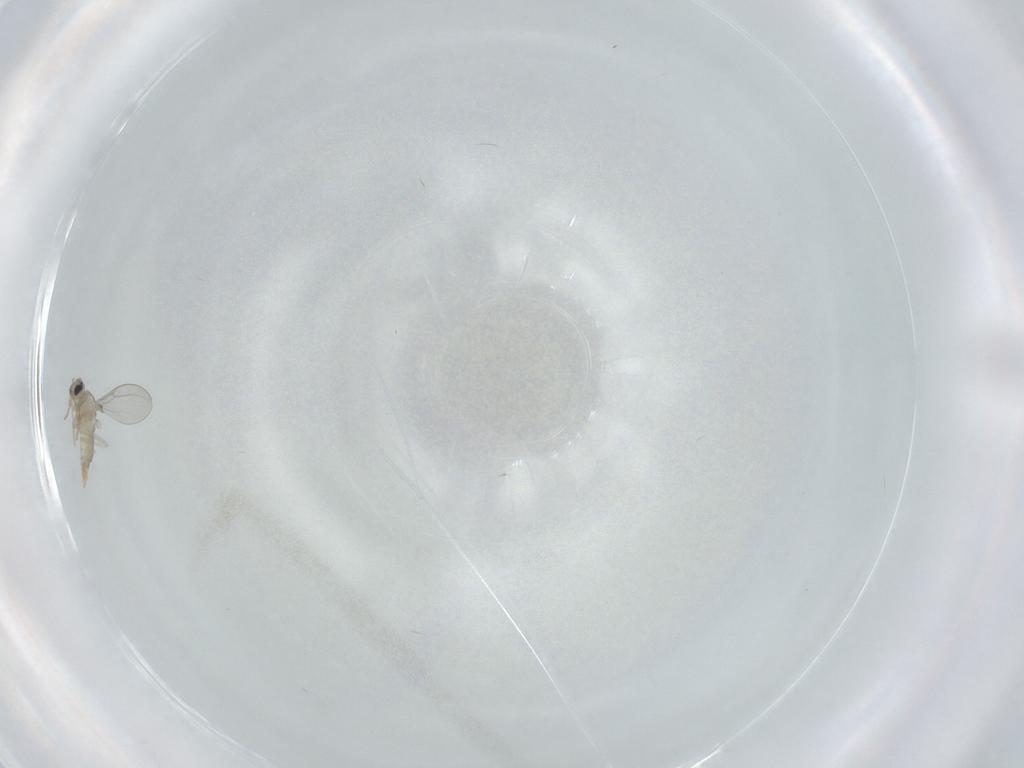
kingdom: Animalia
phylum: Arthropoda
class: Insecta
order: Diptera
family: Cecidomyiidae
